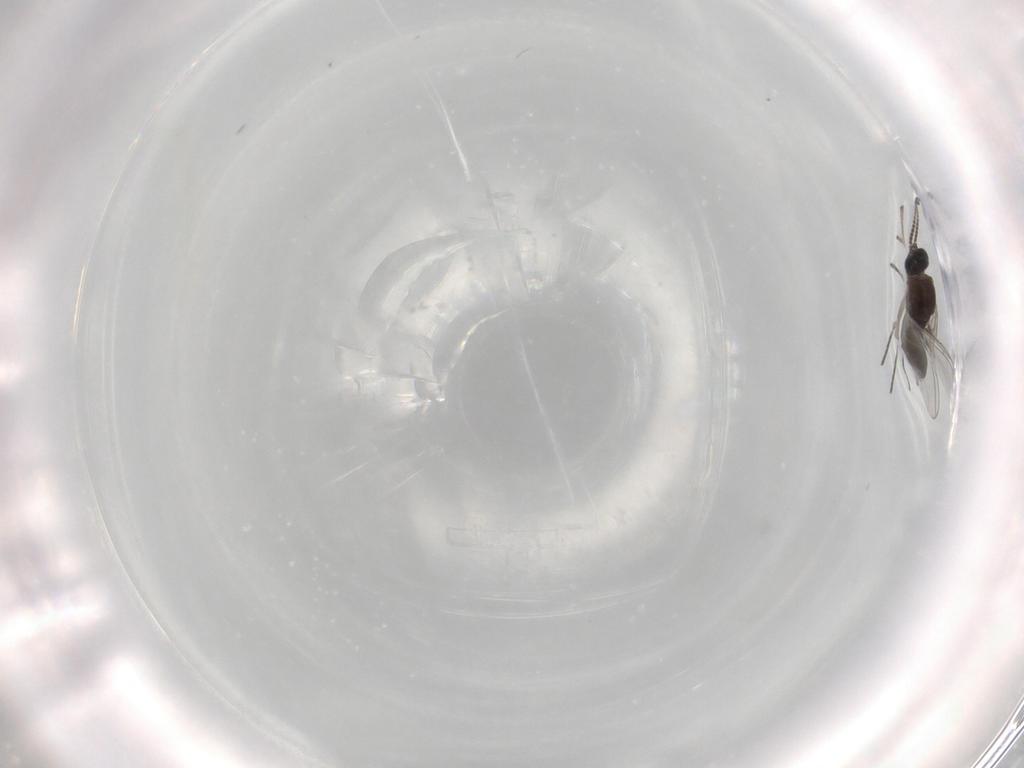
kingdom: Animalia
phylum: Arthropoda
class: Insecta
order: Diptera
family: Sciaridae
